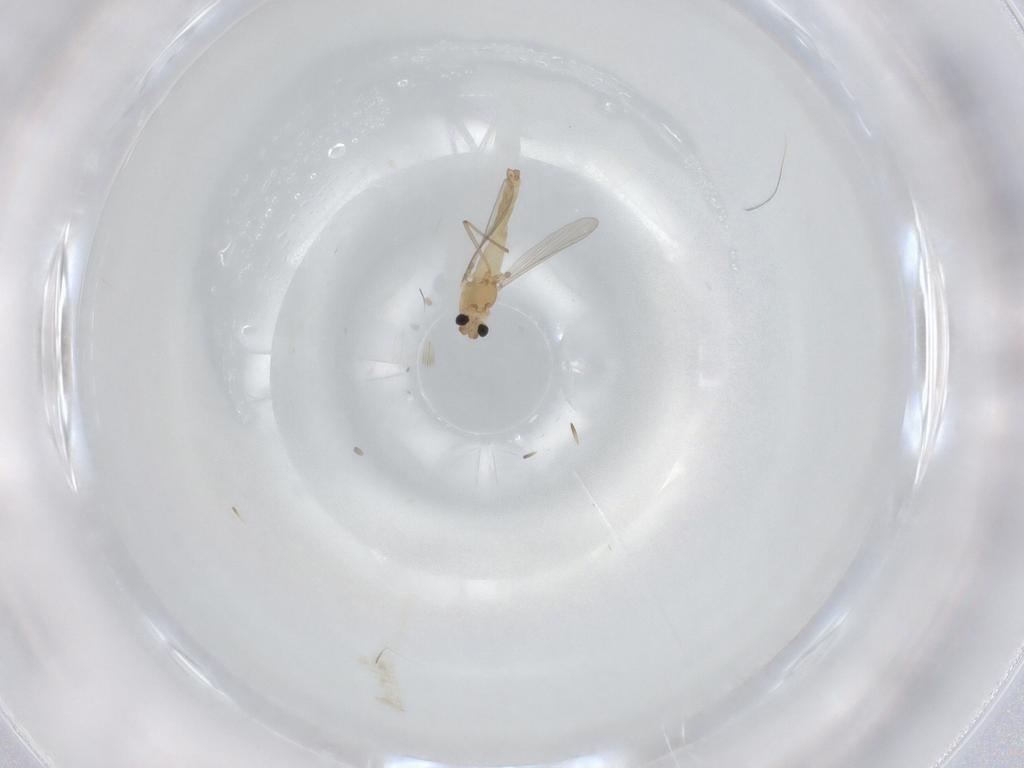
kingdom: Animalia
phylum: Arthropoda
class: Insecta
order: Diptera
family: Chironomidae
